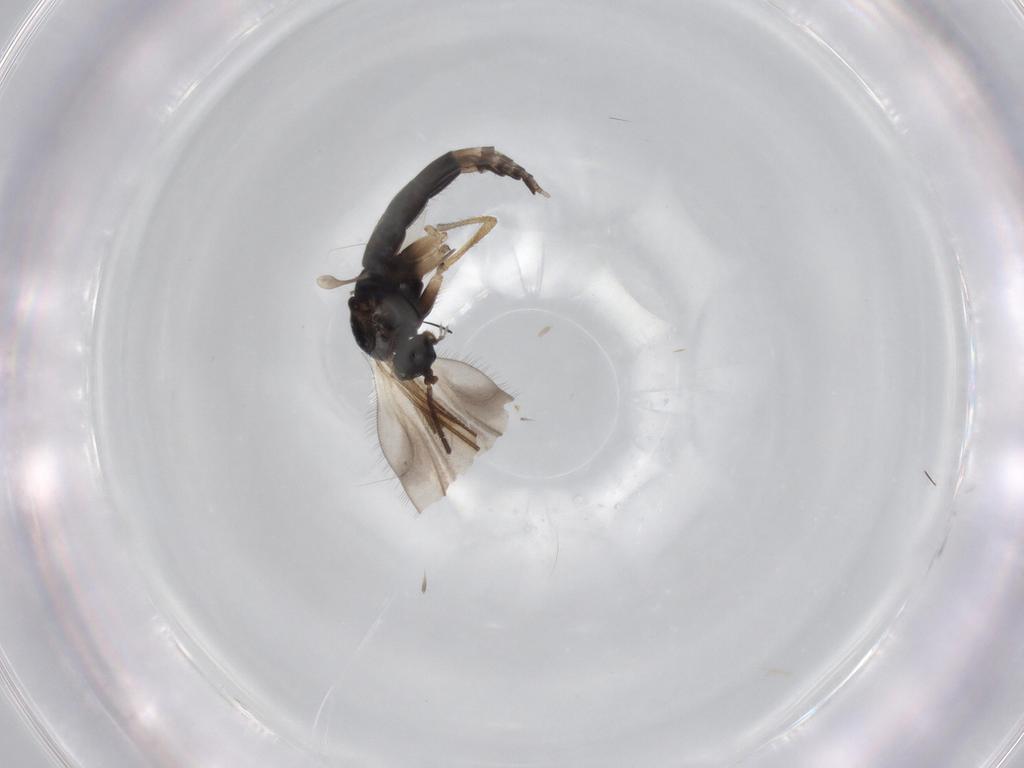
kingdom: Animalia
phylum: Arthropoda
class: Insecta
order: Diptera
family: Sciaridae
